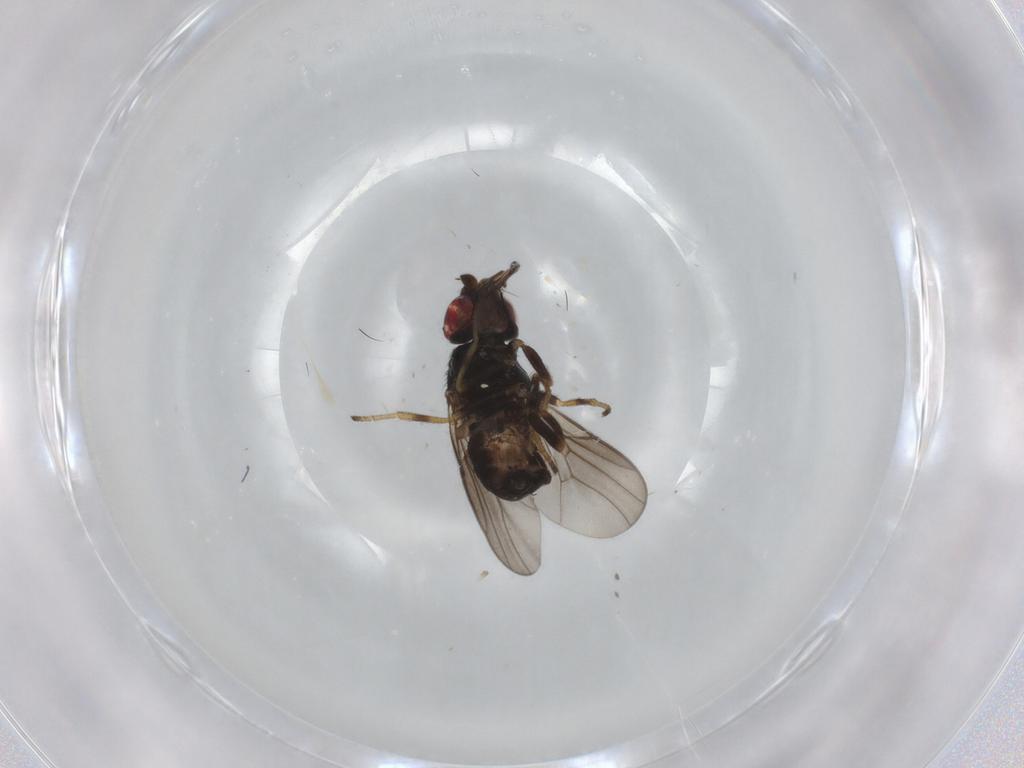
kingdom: Animalia
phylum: Arthropoda
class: Insecta
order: Diptera
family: Chloropidae
